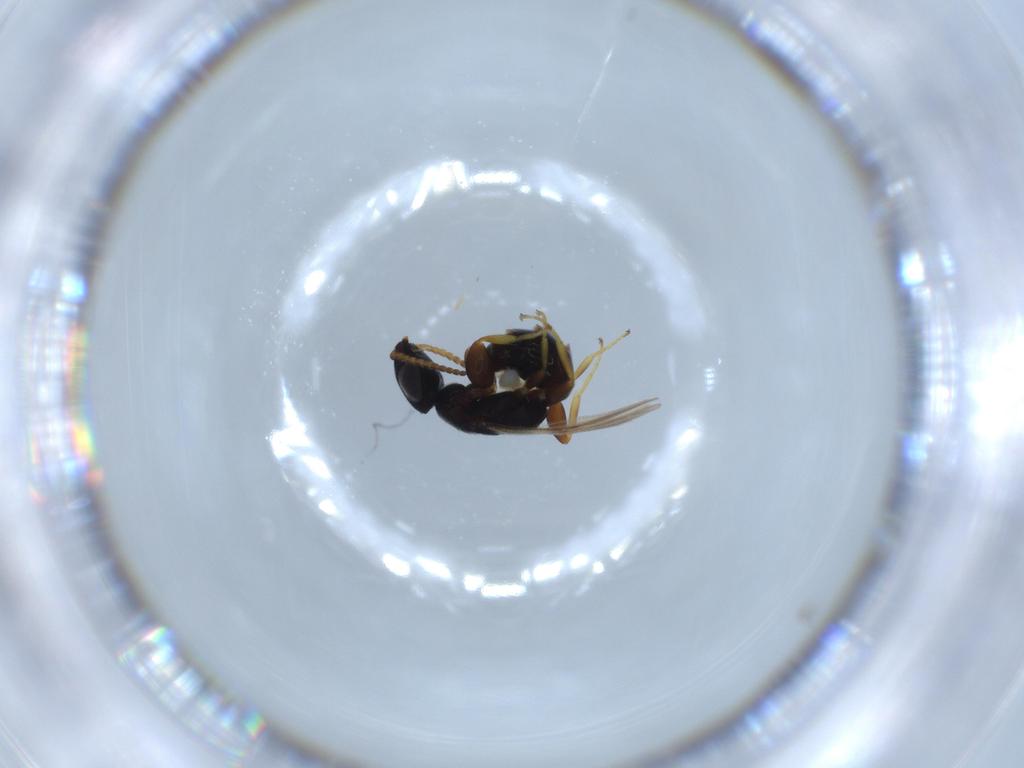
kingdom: Animalia
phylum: Arthropoda
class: Insecta
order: Hymenoptera
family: Bethylidae
